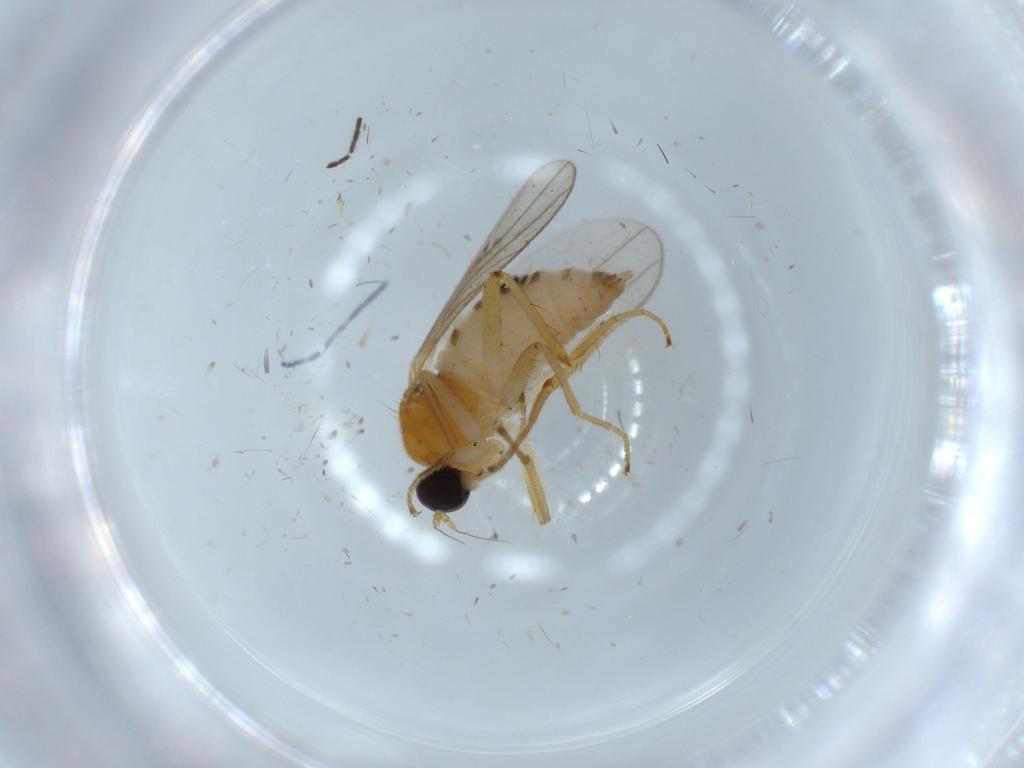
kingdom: Animalia
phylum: Arthropoda
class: Insecta
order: Diptera
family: Hybotidae
